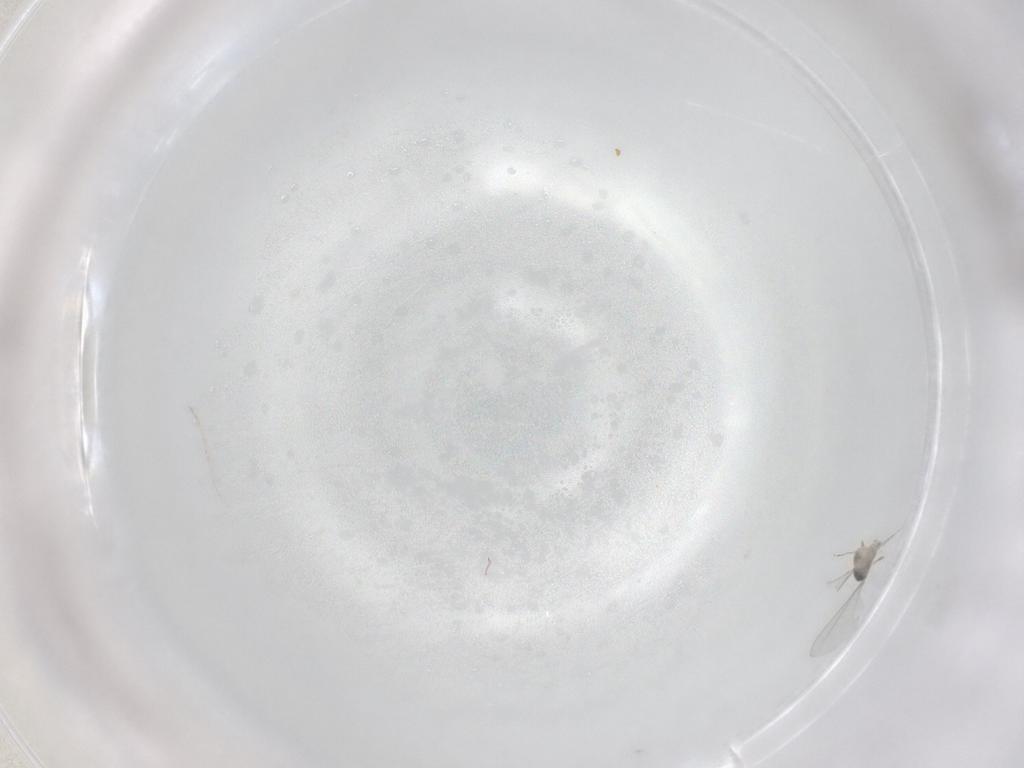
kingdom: Animalia
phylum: Arthropoda
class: Insecta
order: Diptera
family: Cecidomyiidae
